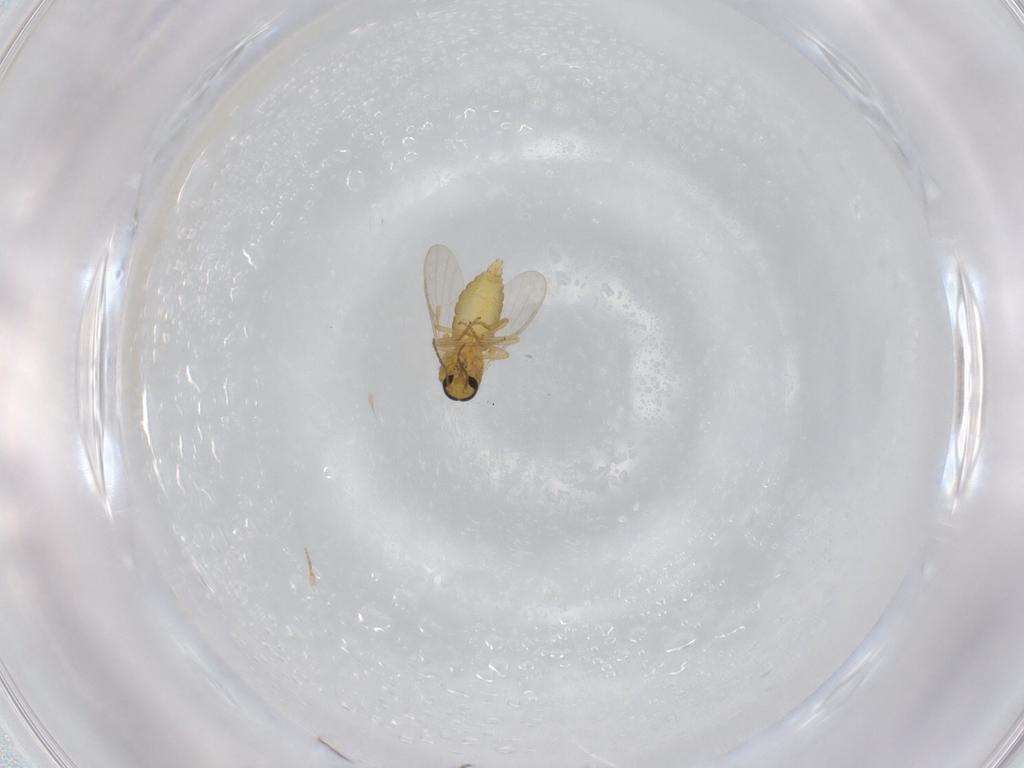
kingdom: Animalia
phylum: Arthropoda
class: Insecta
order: Diptera
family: Ceratopogonidae
